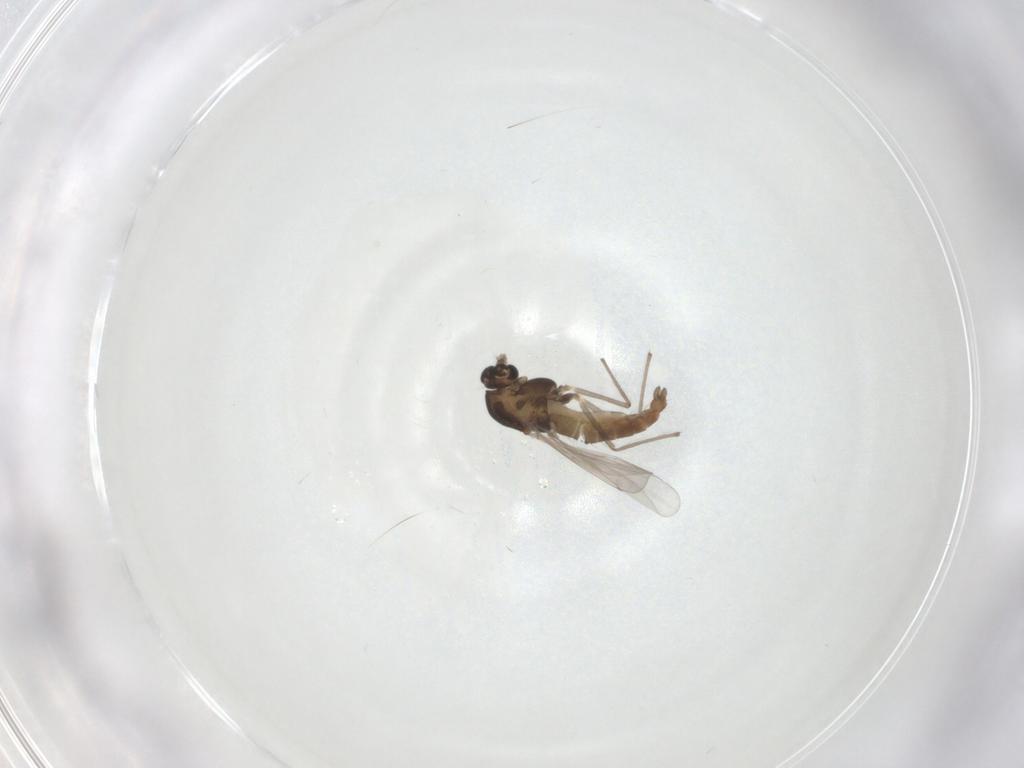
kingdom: Animalia
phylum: Arthropoda
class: Insecta
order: Diptera
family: Chironomidae
